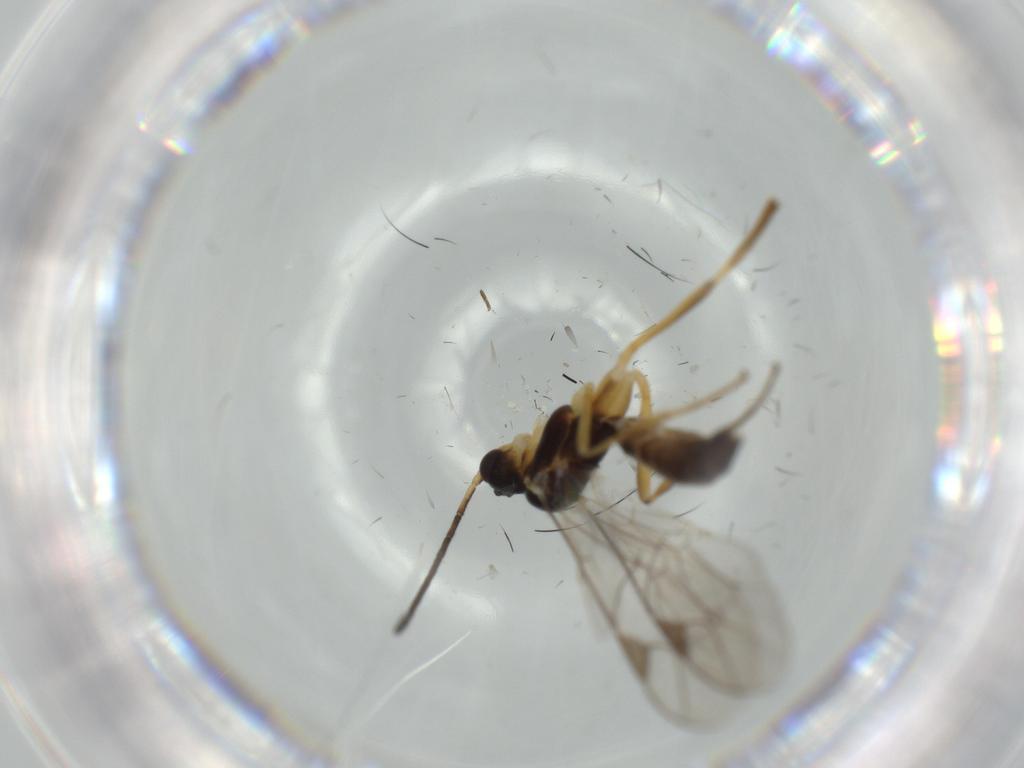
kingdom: Animalia
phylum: Arthropoda
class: Insecta
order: Hymenoptera
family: Ichneumonidae
